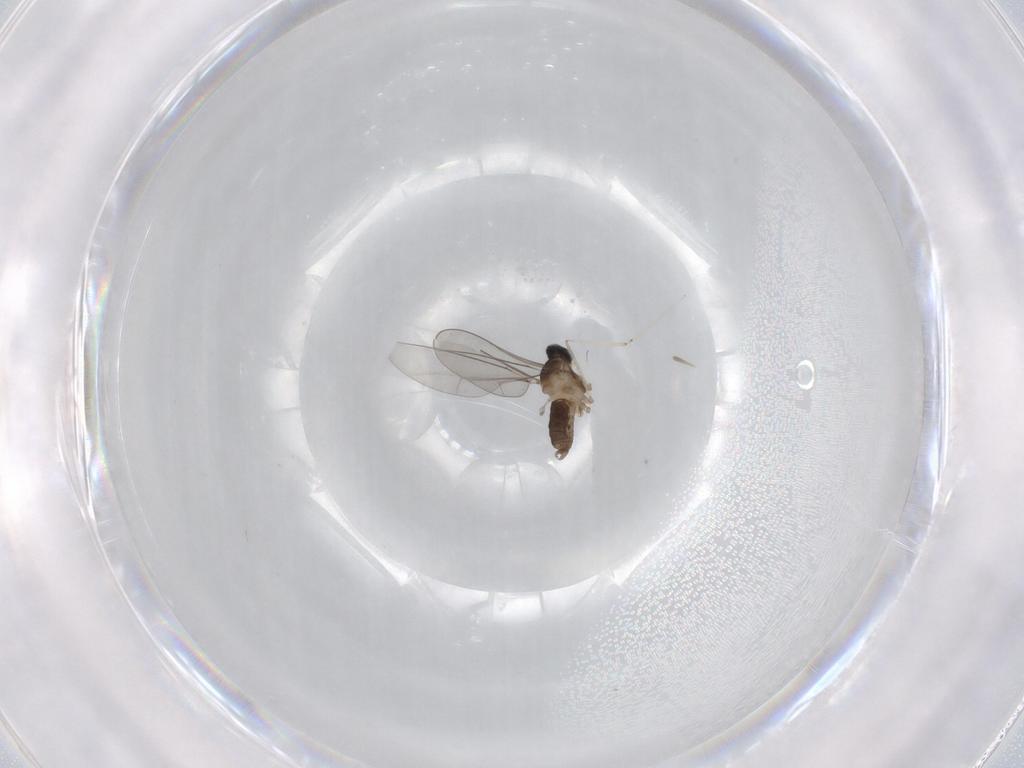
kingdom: Animalia
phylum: Arthropoda
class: Insecta
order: Diptera
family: Cecidomyiidae
